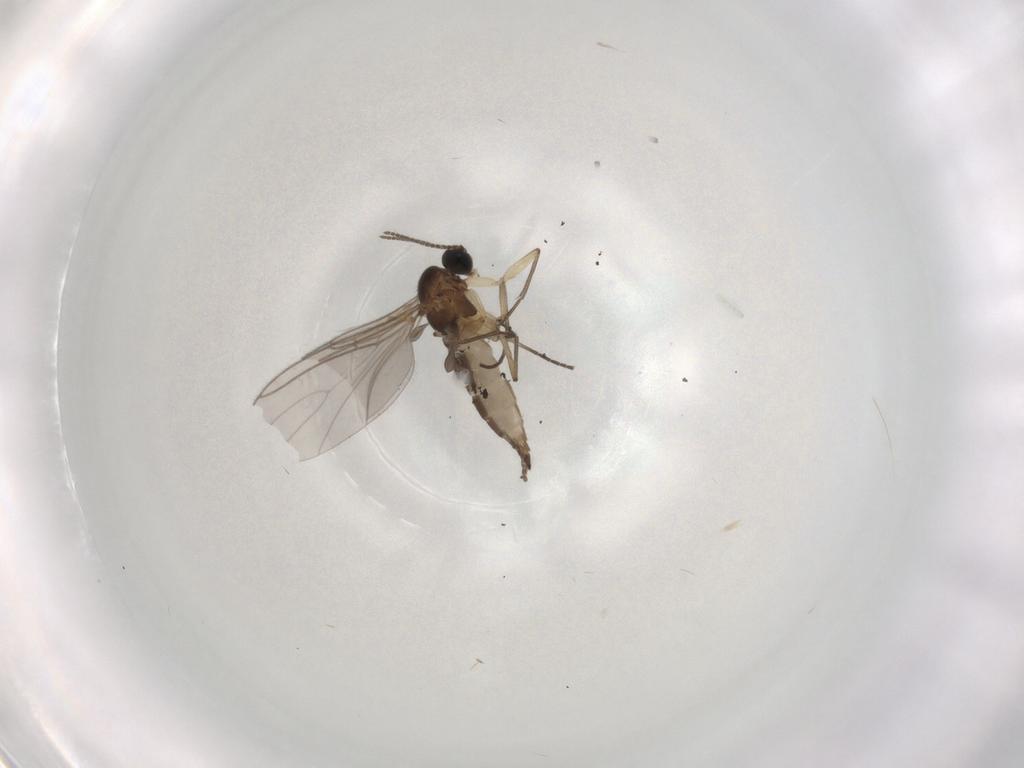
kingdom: Animalia
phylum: Arthropoda
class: Insecta
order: Diptera
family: Sciaridae
